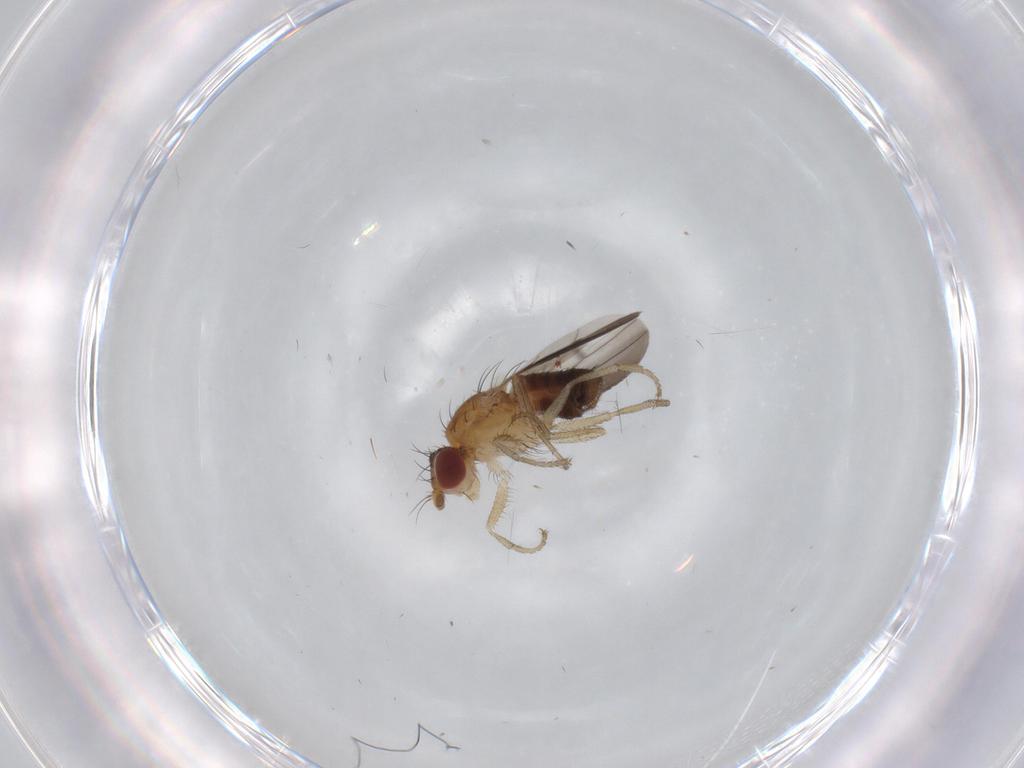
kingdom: Animalia
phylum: Arthropoda
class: Insecta
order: Diptera
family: Heleomyzidae
